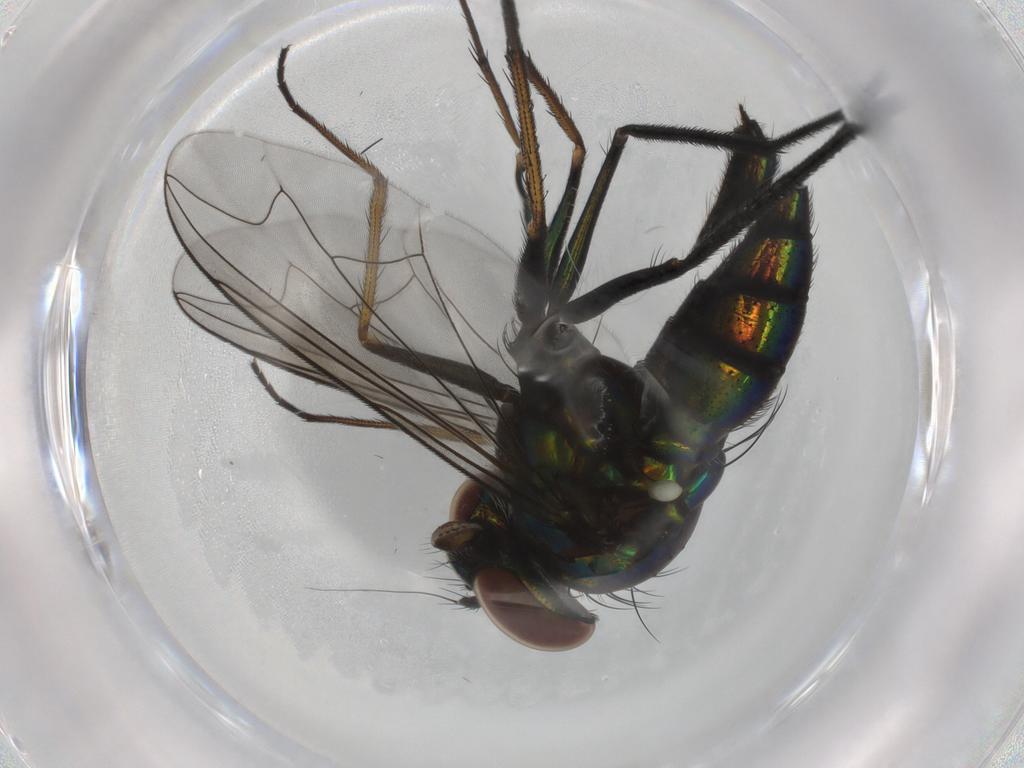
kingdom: Animalia
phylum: Arthropoda
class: Insecta
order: Diptera
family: Dolichopodidae
